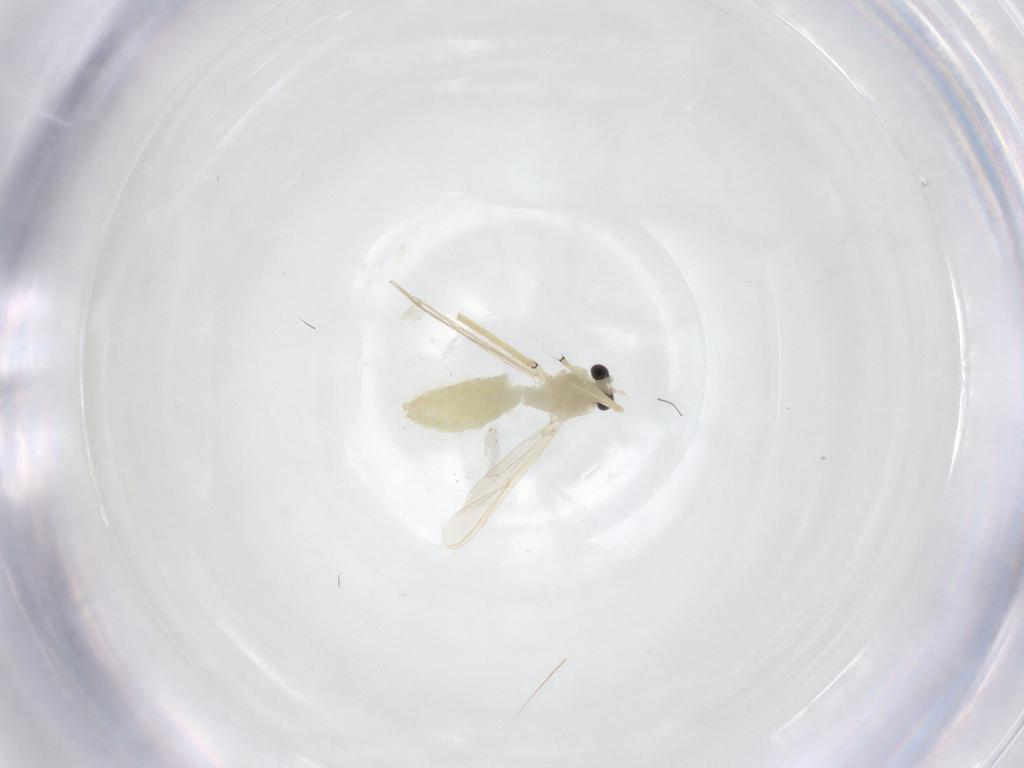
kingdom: Animalia
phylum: Arthropoda
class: Insecta
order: Diptera
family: Chironomidae
